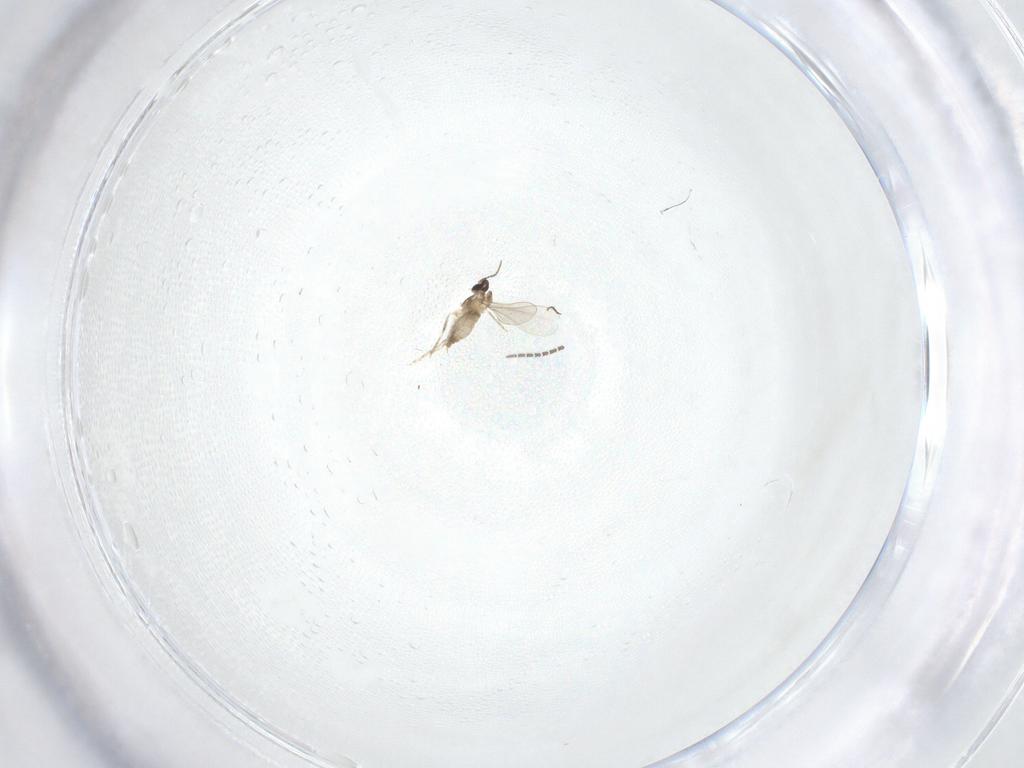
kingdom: Animalia
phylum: Arthropoda
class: Insecta
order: Diptera
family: Cecidomyiidae
